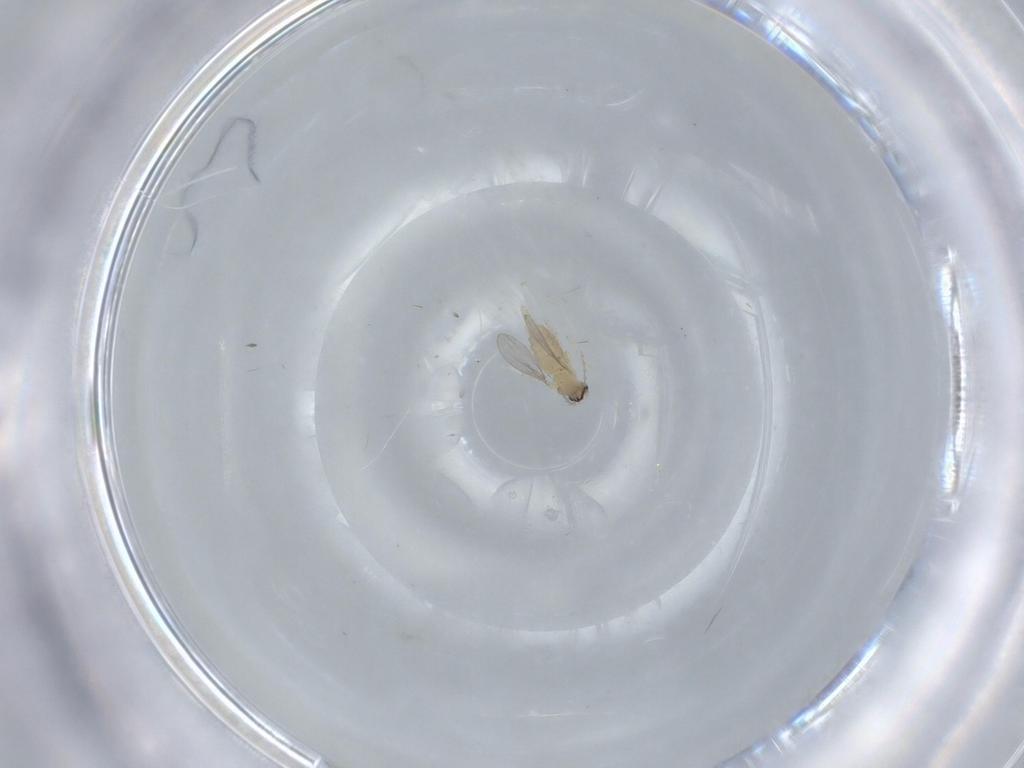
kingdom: Animalia
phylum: Arthropoda
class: Insecta
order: Diptera
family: Cecidomyiidae
